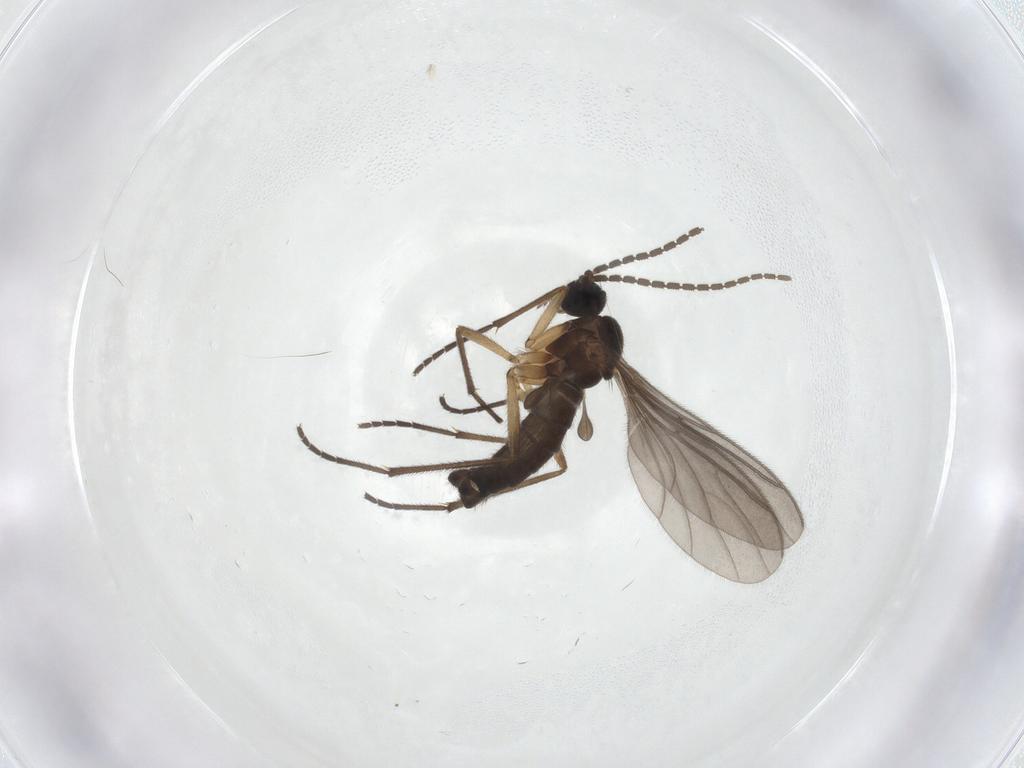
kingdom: Animalia
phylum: Arthropoda
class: Insecta
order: Diptera
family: Sciaridae
